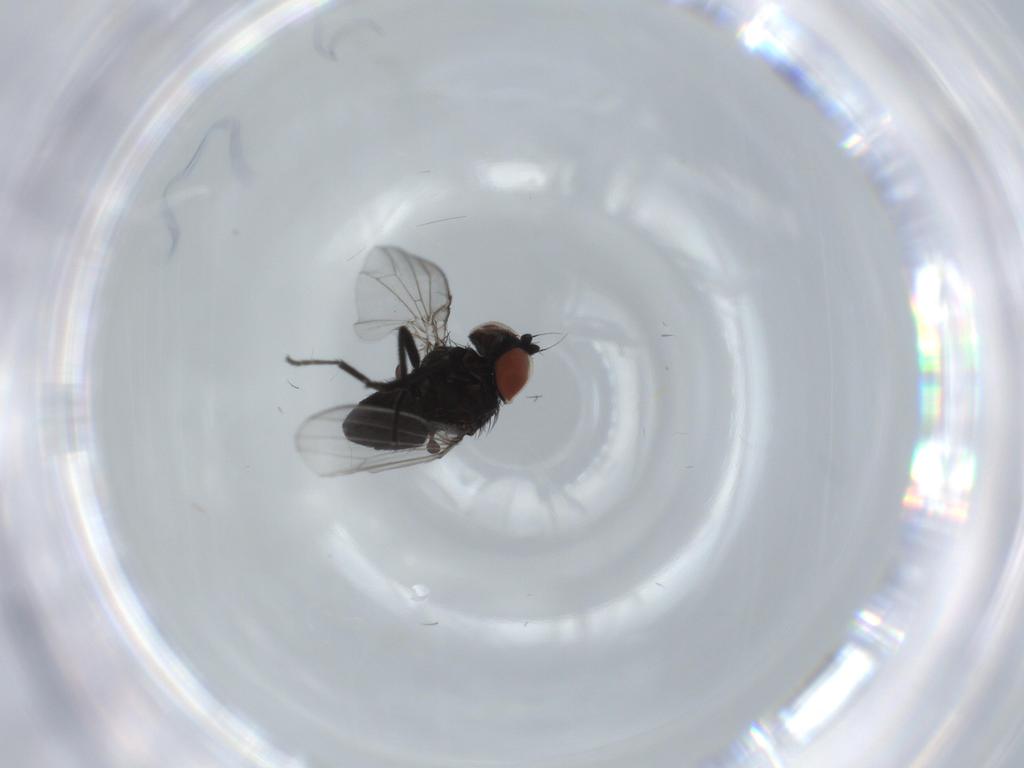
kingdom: Animalia
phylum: Arthropoda
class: Insecta
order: Diptera
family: Milichiidae
